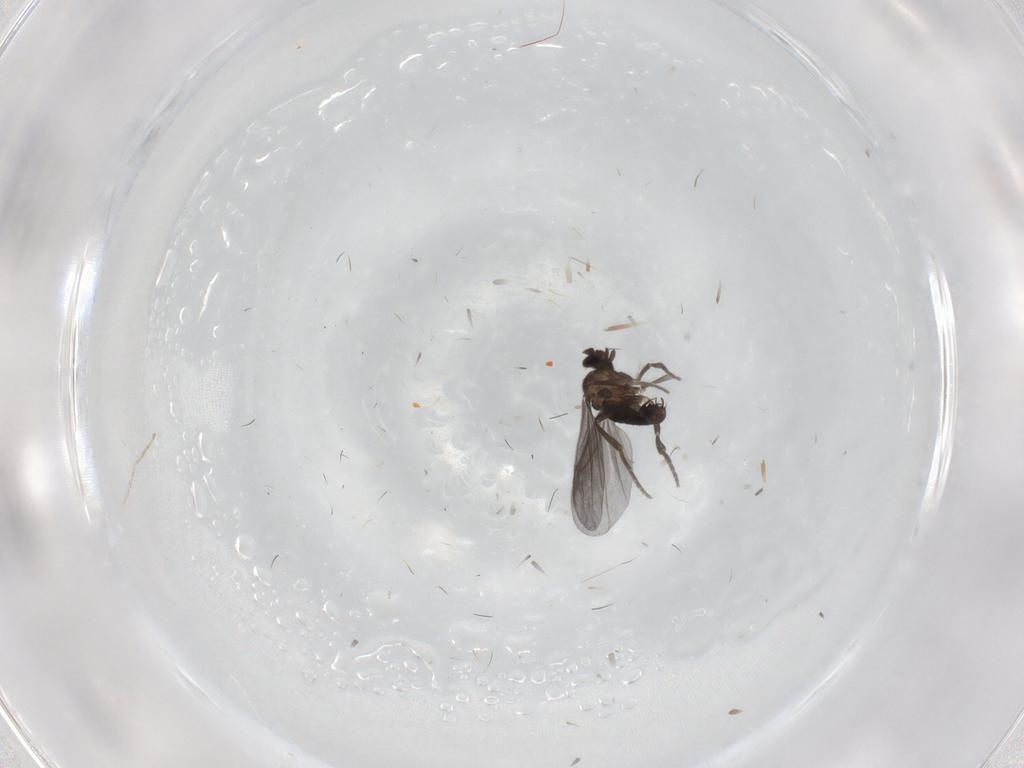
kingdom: Animalia
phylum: Arthropoda
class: Insecta
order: Diptera
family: Phoridae
